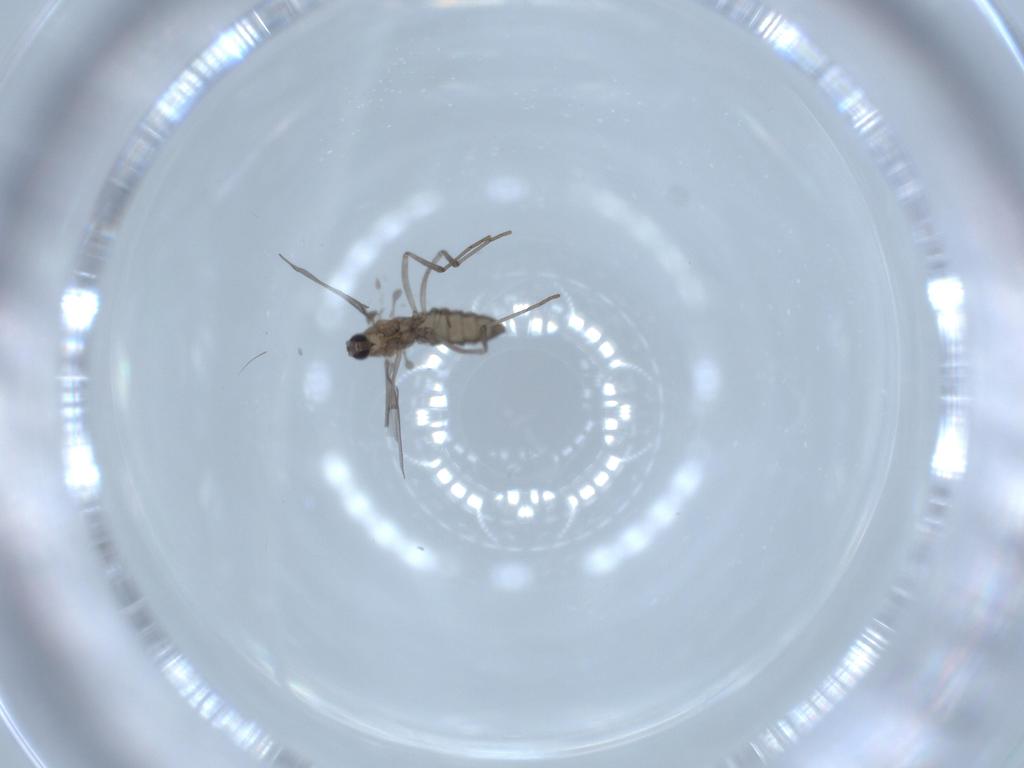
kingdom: Animalia
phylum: Arthropoda
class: Insecta
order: Diptera
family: Cecidomyiidae
